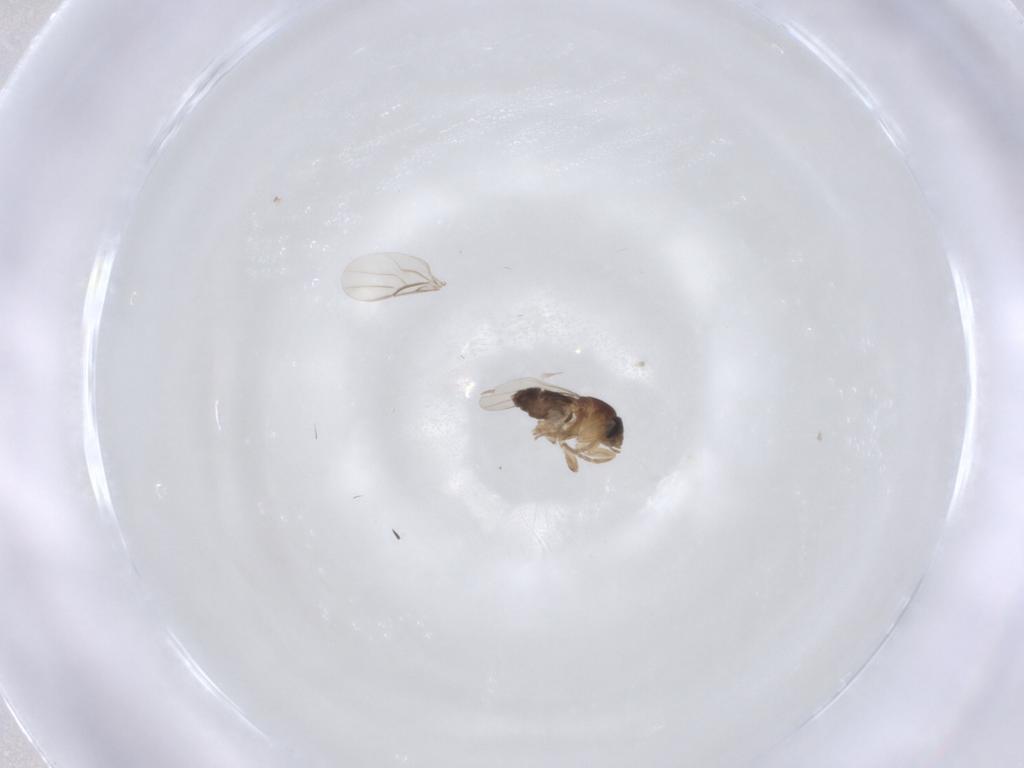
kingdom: Animalia
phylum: Arthropoda
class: Insecta
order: Diptera
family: Phoridae
